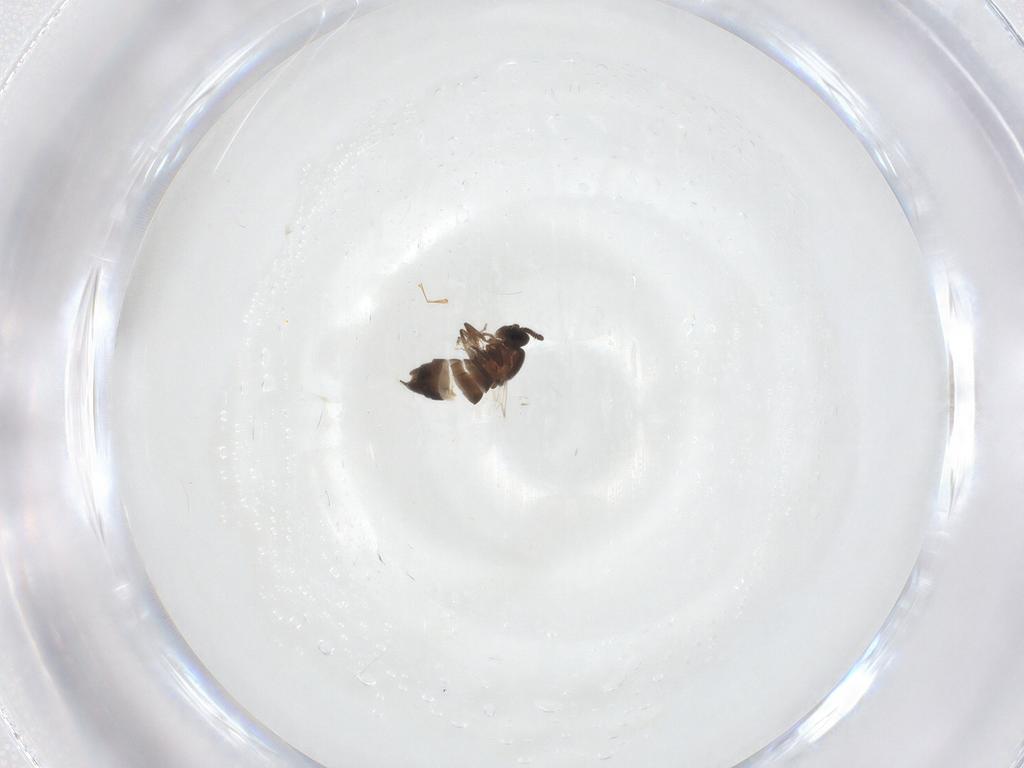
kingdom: Animalia
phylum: Arthropoda
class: Insecta
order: Diptera
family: Scatopsidae
